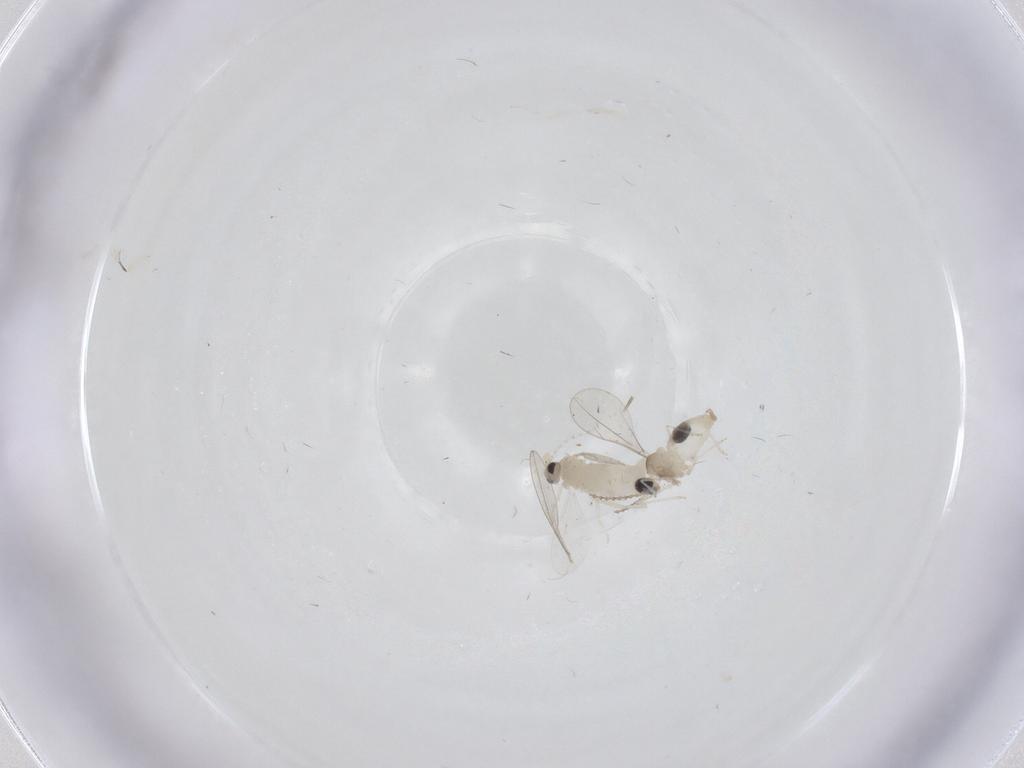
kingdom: Animalia
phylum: Arthropoda
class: Insecta
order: Diptera
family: Cecidomyiidae
